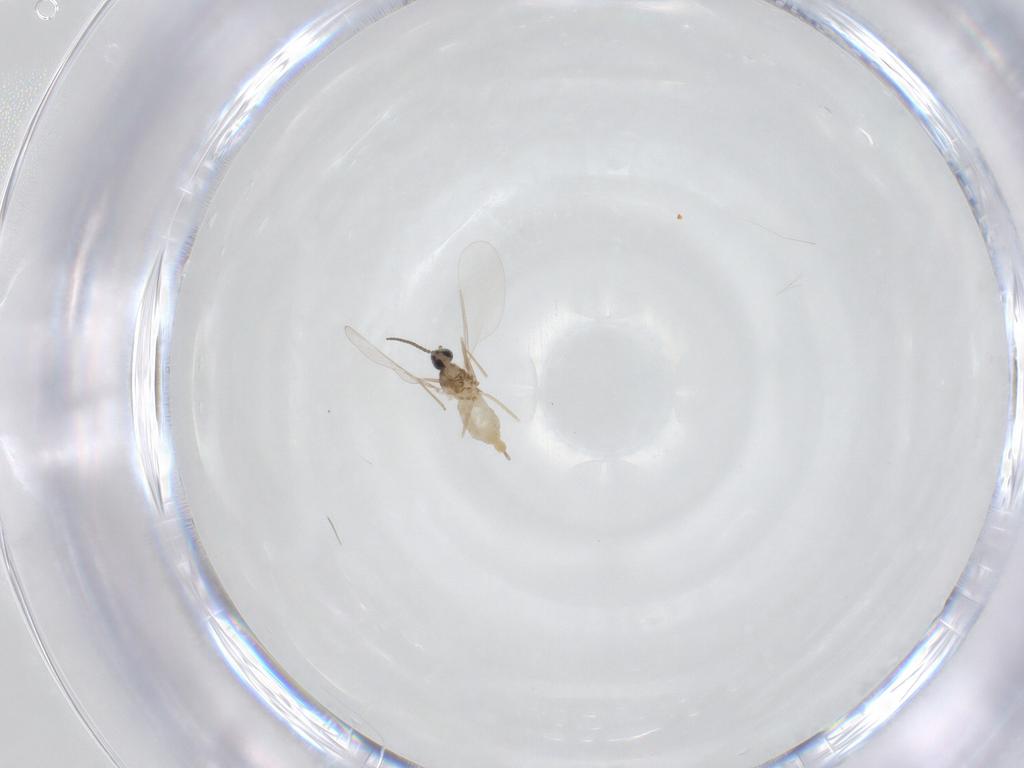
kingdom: Animalia
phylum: Arthropoda
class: Insecta
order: Diptera
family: Cecidomyiidae
